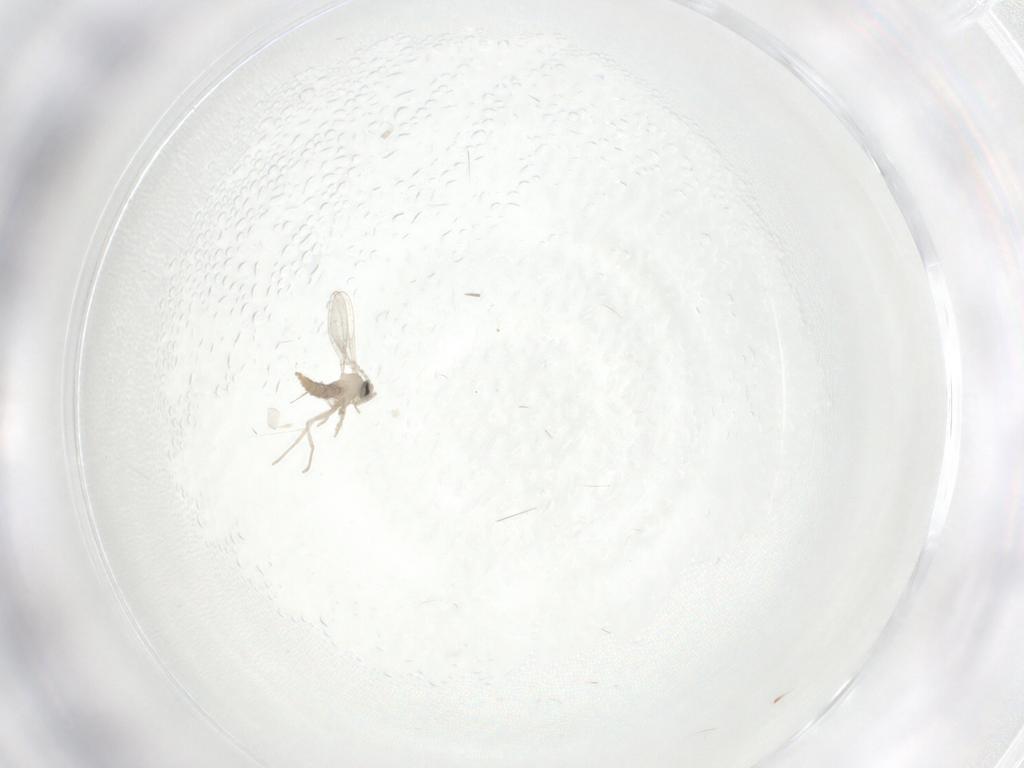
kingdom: Animalia
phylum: Arthropoda
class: Insecta
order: Diptera
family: Cecidomyiidae
